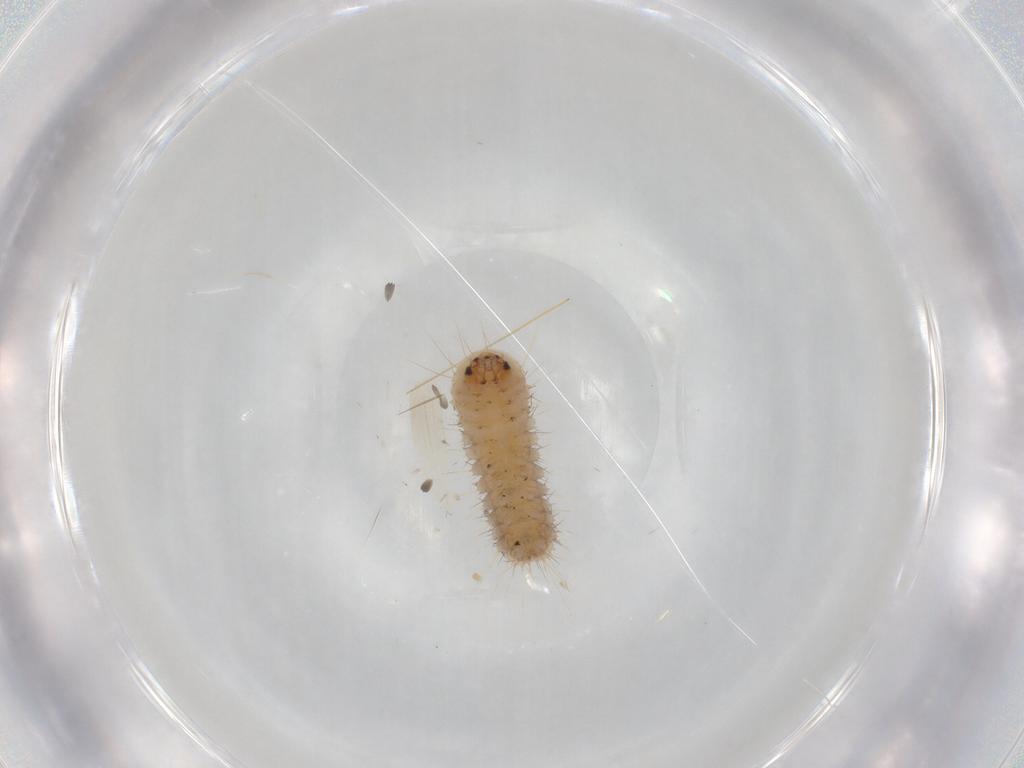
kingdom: Animalia
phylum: Arthropoda
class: Insecta
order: Lepidoptera
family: Zygaenidae
